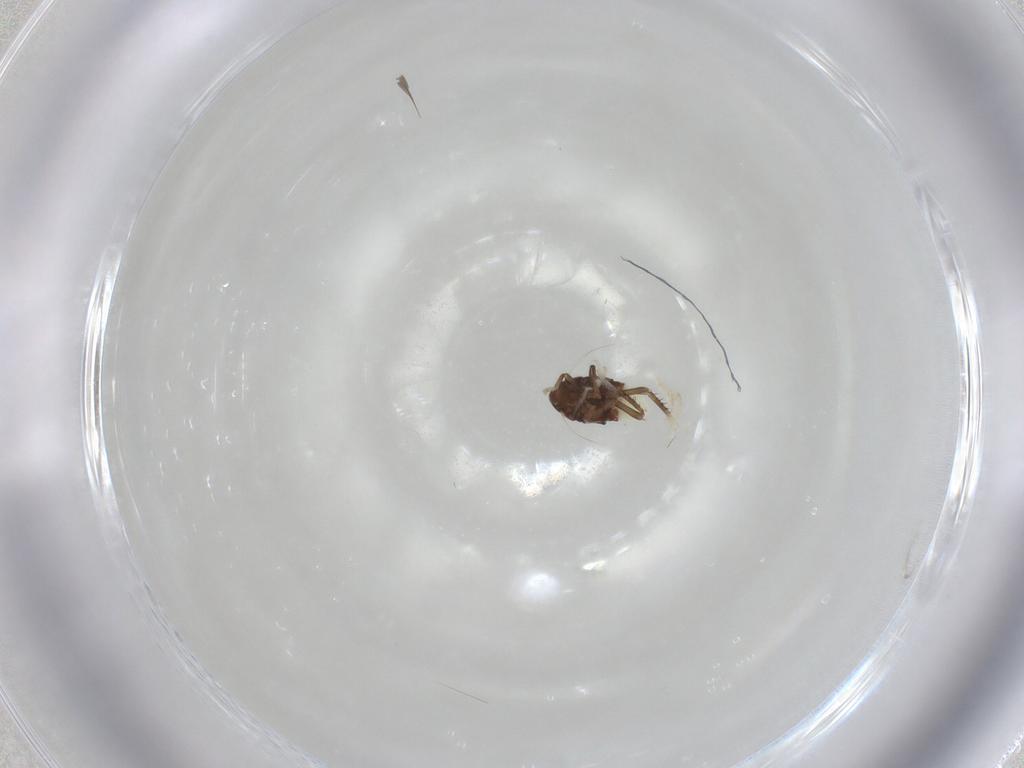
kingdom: Animalia
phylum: Arthropoda
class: Insecta
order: Hemiptera
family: Cicadellidae
